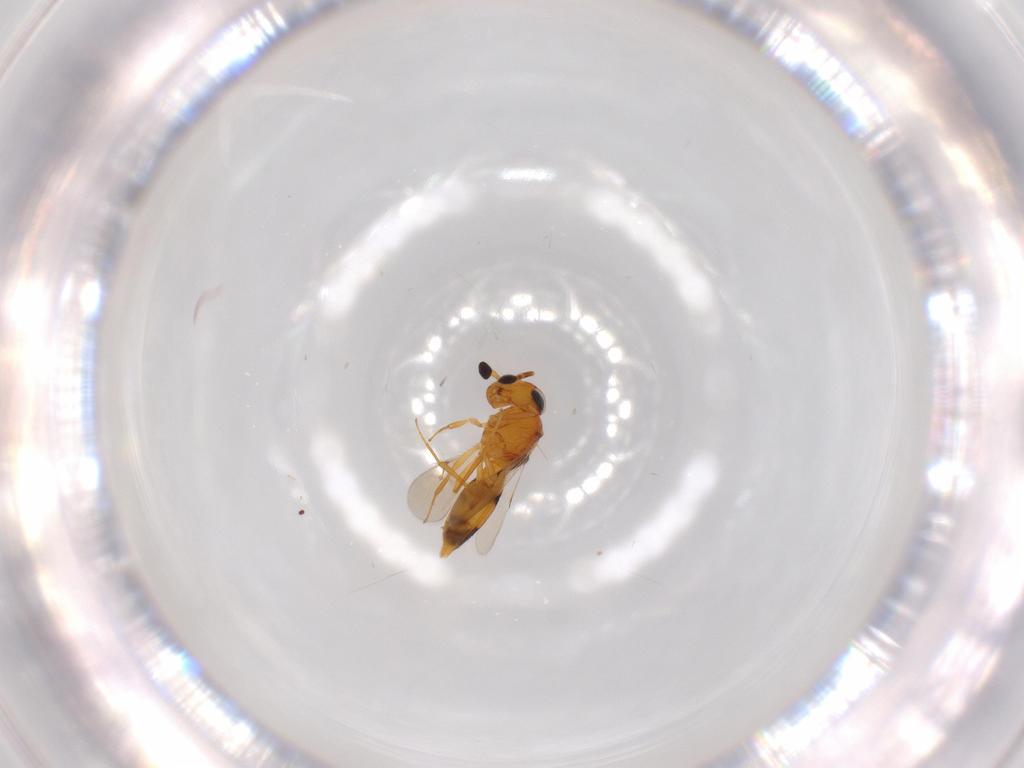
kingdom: Animalia
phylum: Arthropoda
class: Insecta
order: Hymenoptera
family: Scelionidae
